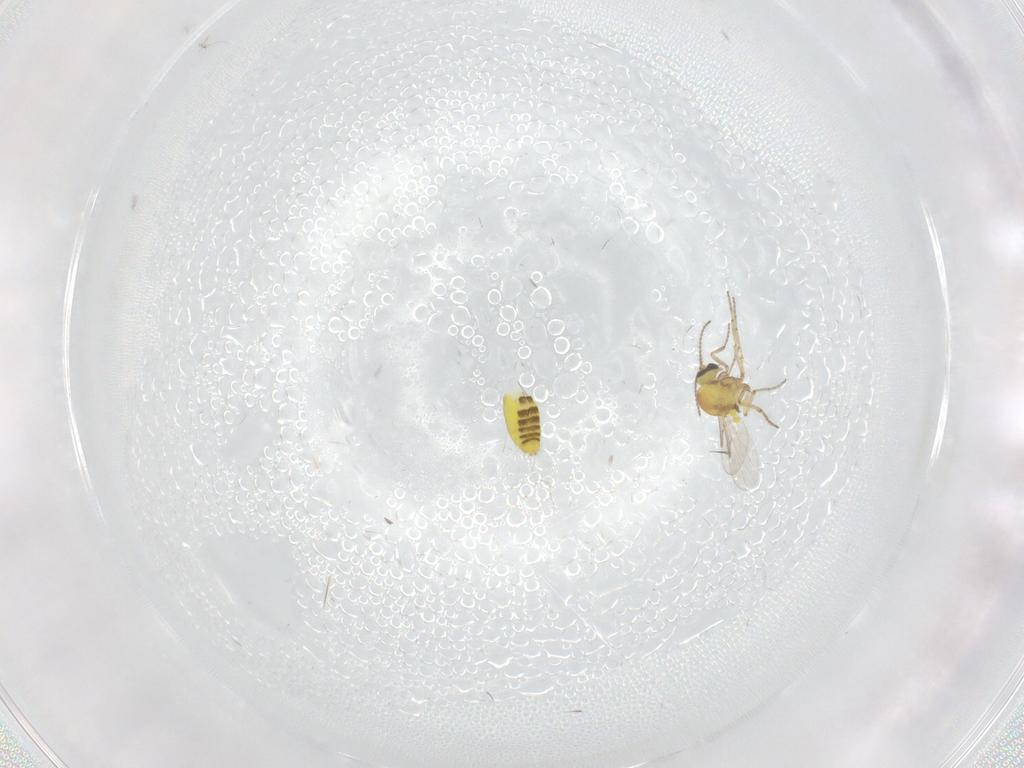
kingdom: Animalia
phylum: Arthropoda
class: Insecta
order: Diptera
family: Ceratopogonidae
